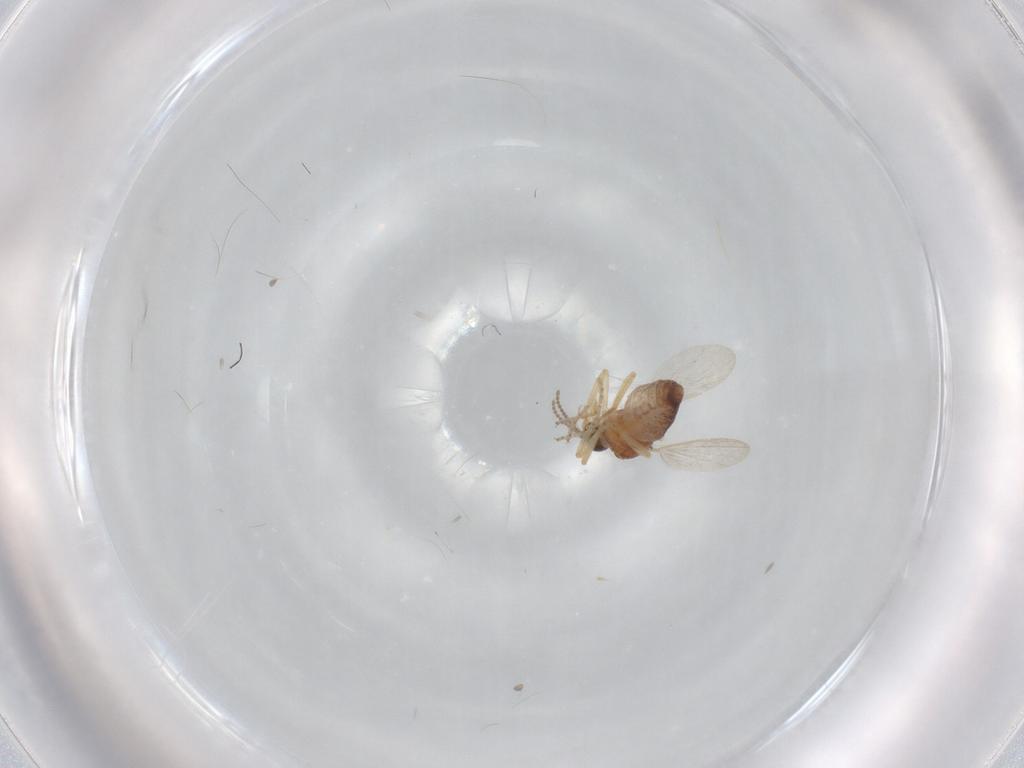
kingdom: Animalia
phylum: Arthropoda
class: Insecta
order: Diptera
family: Ceratopogonidae
